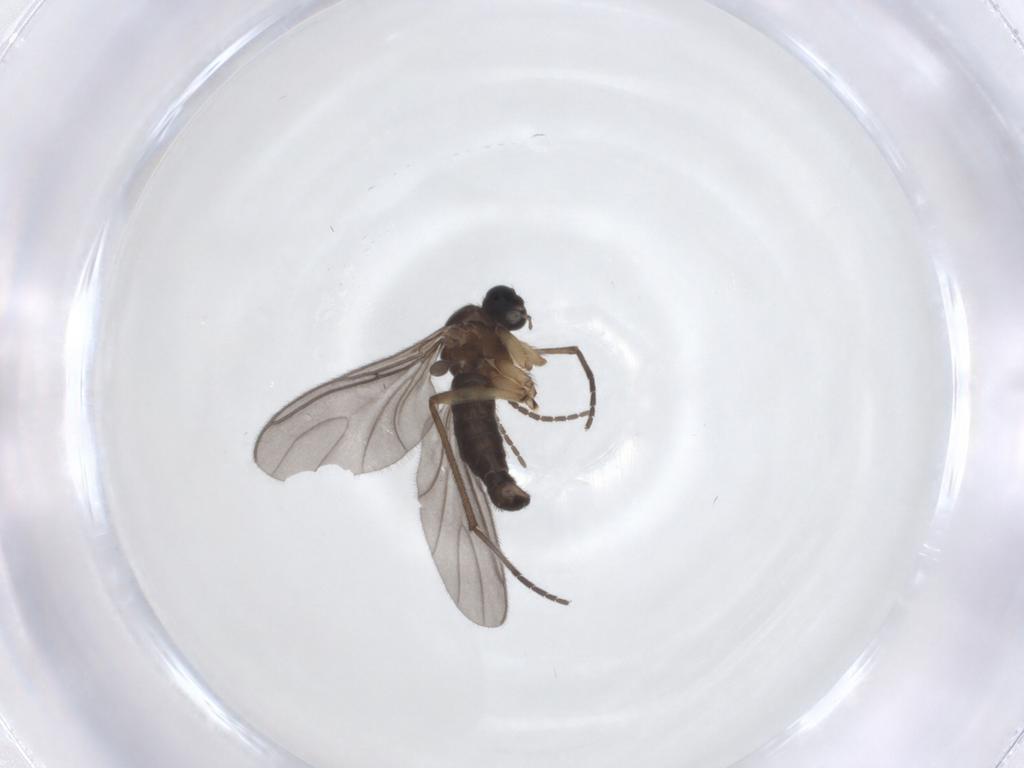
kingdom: Animalia
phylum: Arthropoda
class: Insecta
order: Diptera
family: Sciaridae
